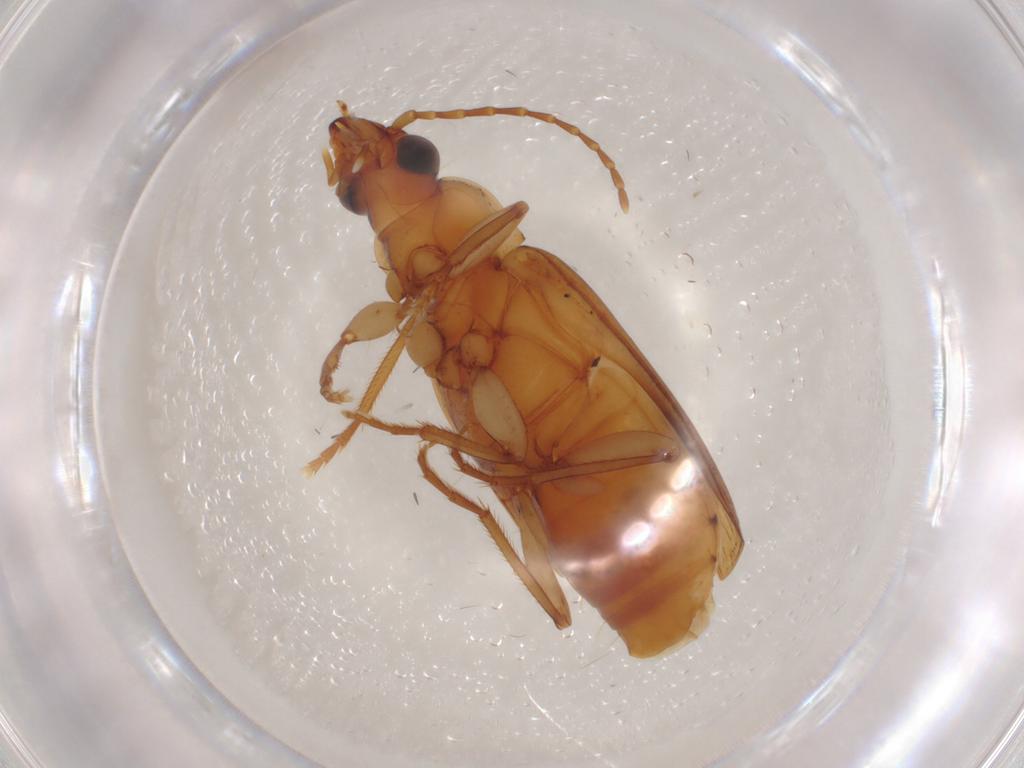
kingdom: Animalia
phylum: Arthropoda
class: Insecta
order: Coleoptera
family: Carabidae
